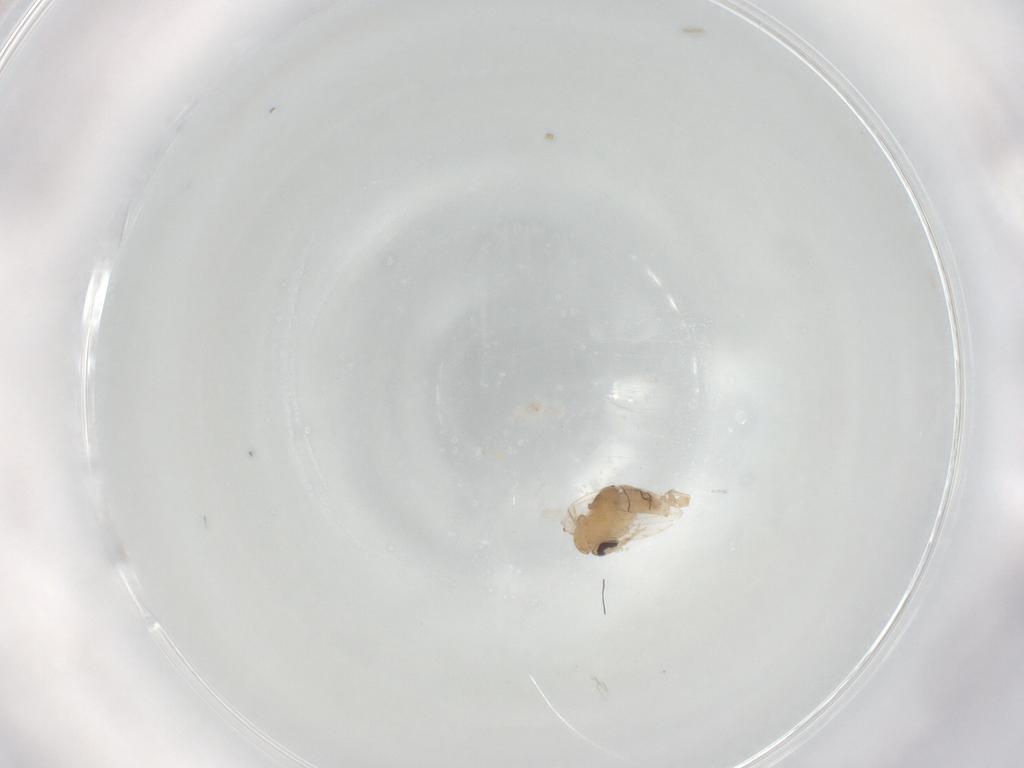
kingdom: Animalia
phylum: Arthropoda
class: Insecta
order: Diptera
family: Psychodidae
